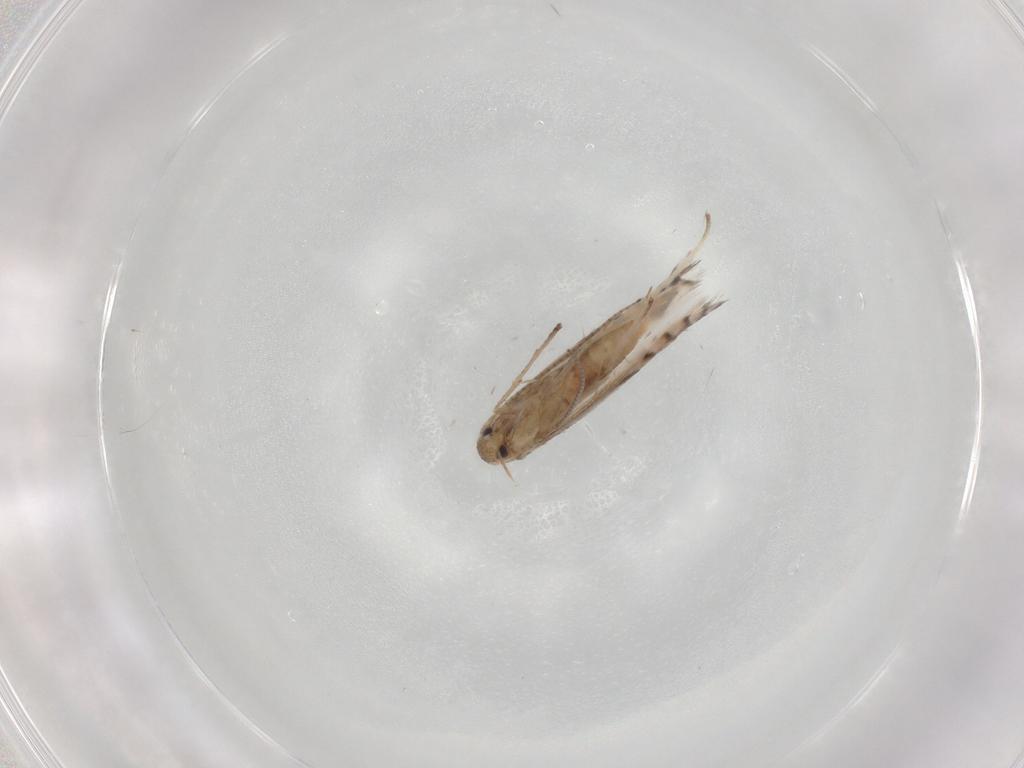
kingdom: Animalia
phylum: Arthropoda
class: Insecta
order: Lepidoptera
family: Gracillariidae
